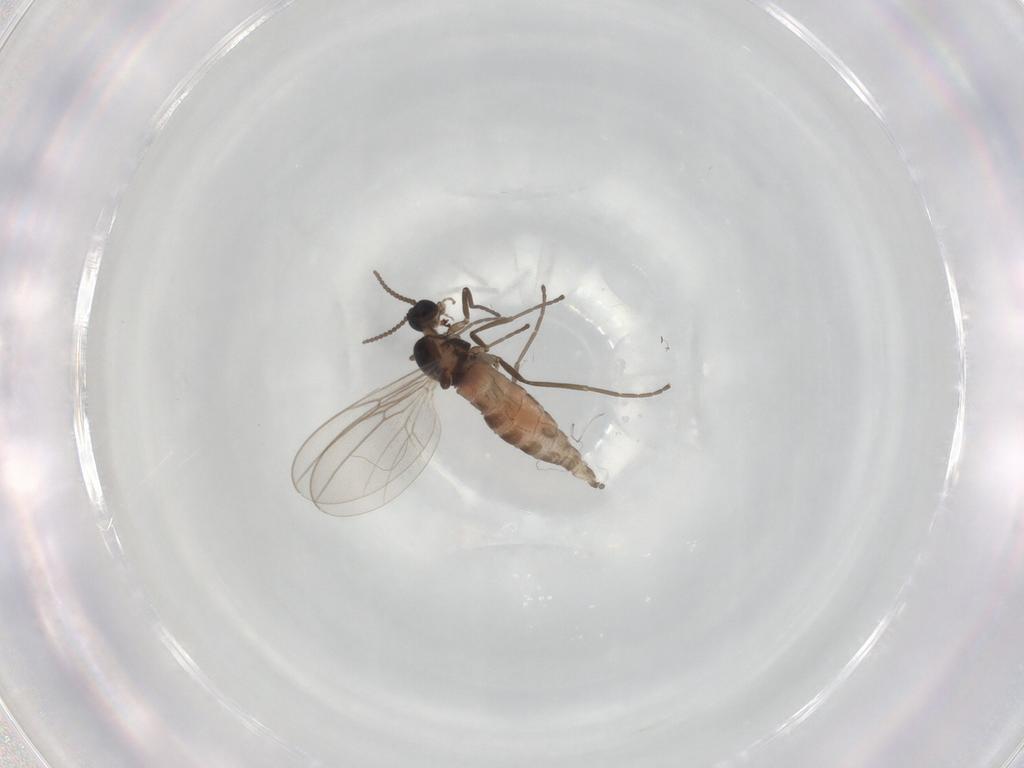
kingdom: Animalia
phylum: Arthropoda
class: Insecta
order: Diptera
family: Cecidomyiidae
